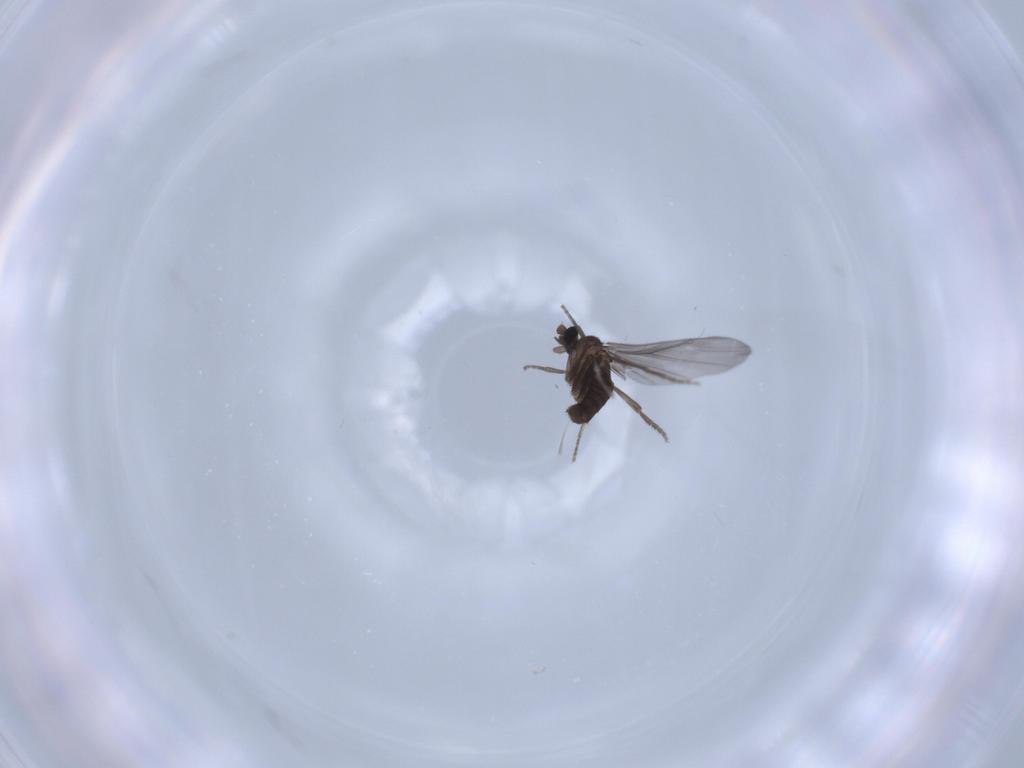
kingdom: Animalia
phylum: Arthropoda
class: Insecta
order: Diptera
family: Phoridae
